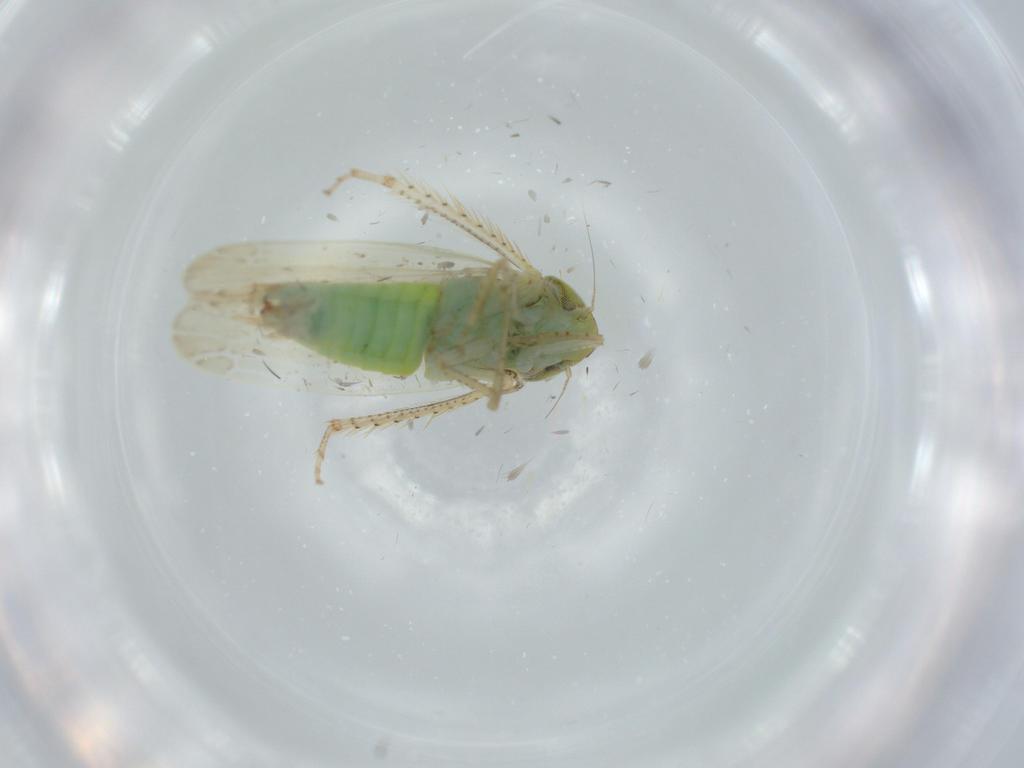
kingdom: Animalia
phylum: Arthropoda
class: Insecta
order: Hemiptera
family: Cicadellidae
